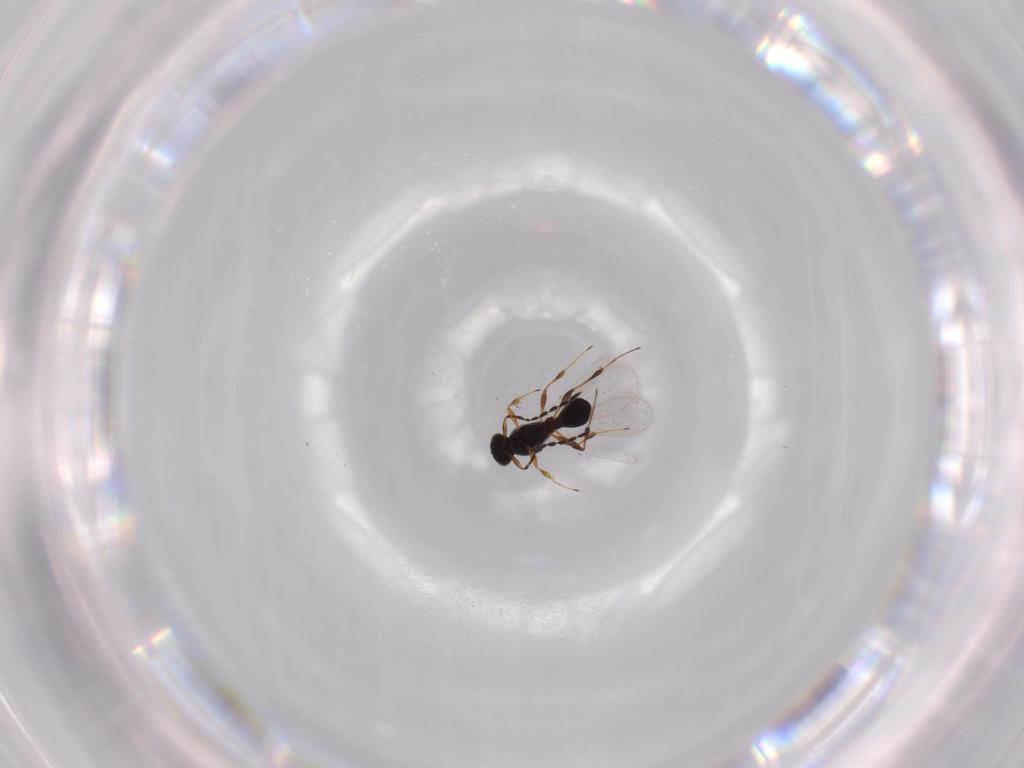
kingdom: Animalia
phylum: Arthropoda
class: Insecta
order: Hymenoptera
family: Platygastridae
